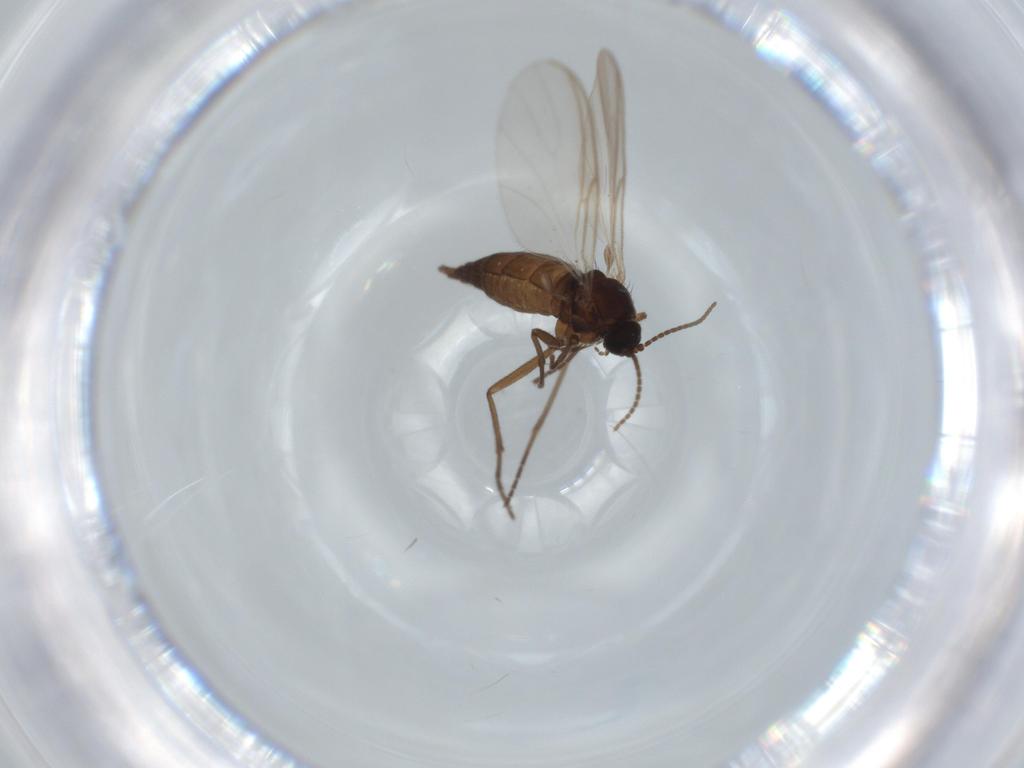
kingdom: Animalia
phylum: Arthropoda
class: Insecta
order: Diptera
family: Sciaridae
